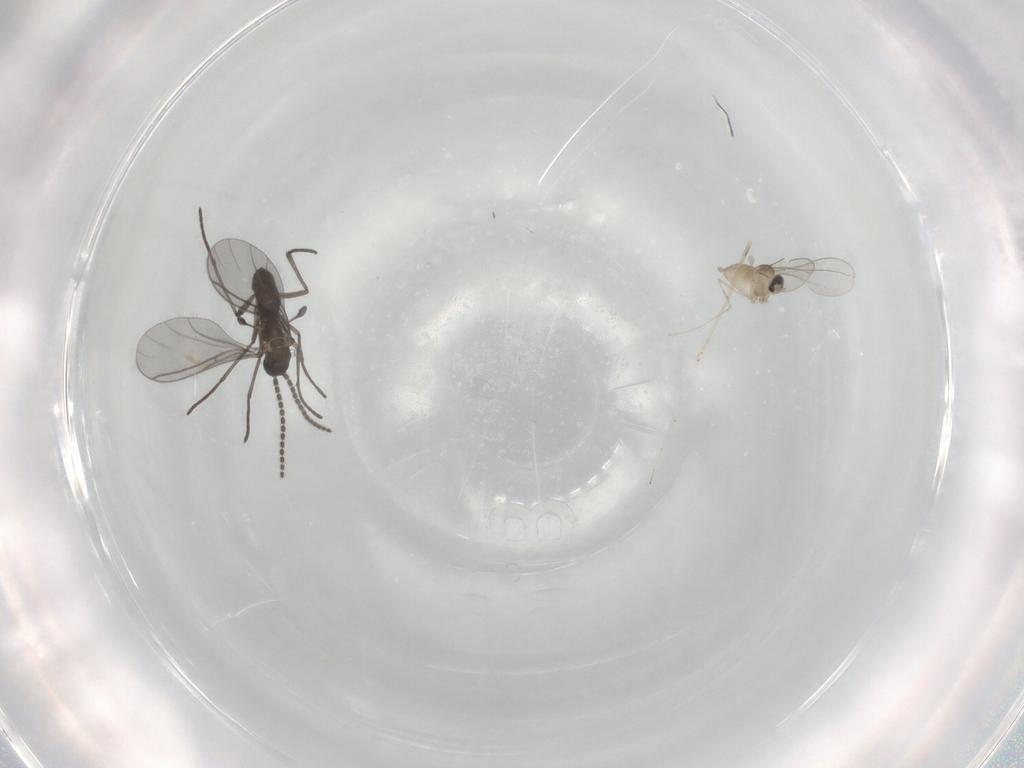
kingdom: Animalia
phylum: Arthropoda
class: Insecta
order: Diptera
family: Cecidomyiidae
